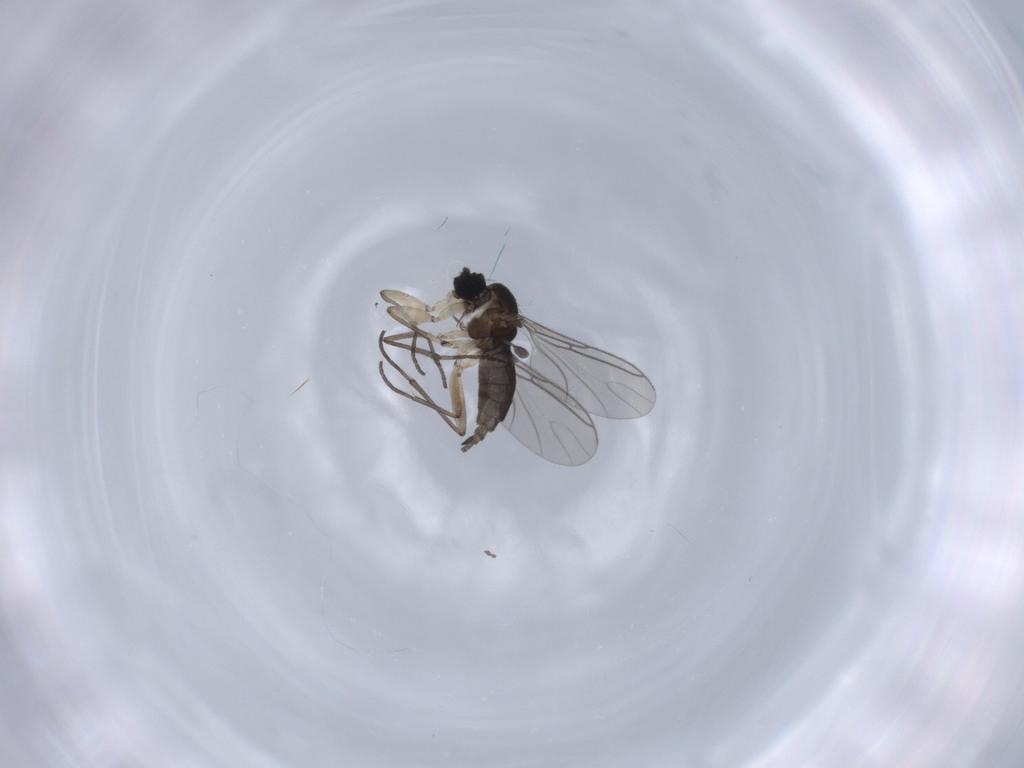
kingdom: Animalia
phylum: Arthropoda
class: Insecta
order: Diptera
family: Sciaridae
